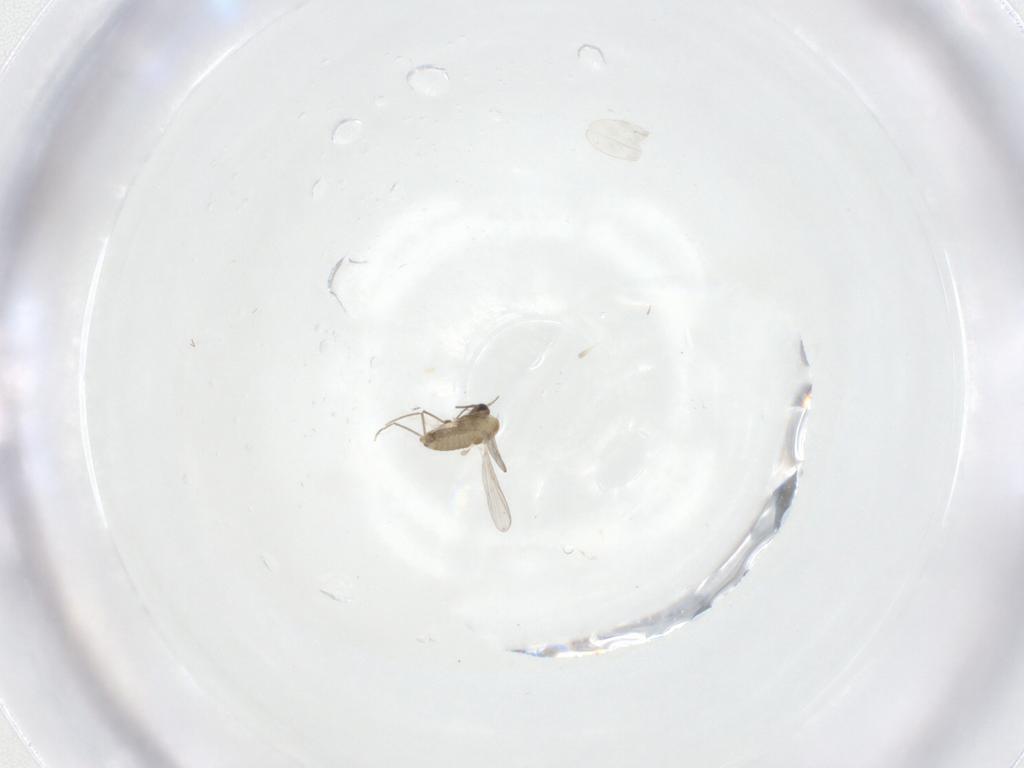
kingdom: Animalia
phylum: Arthropoda
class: Insecta
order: Diptera
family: Cecidomyiidae
